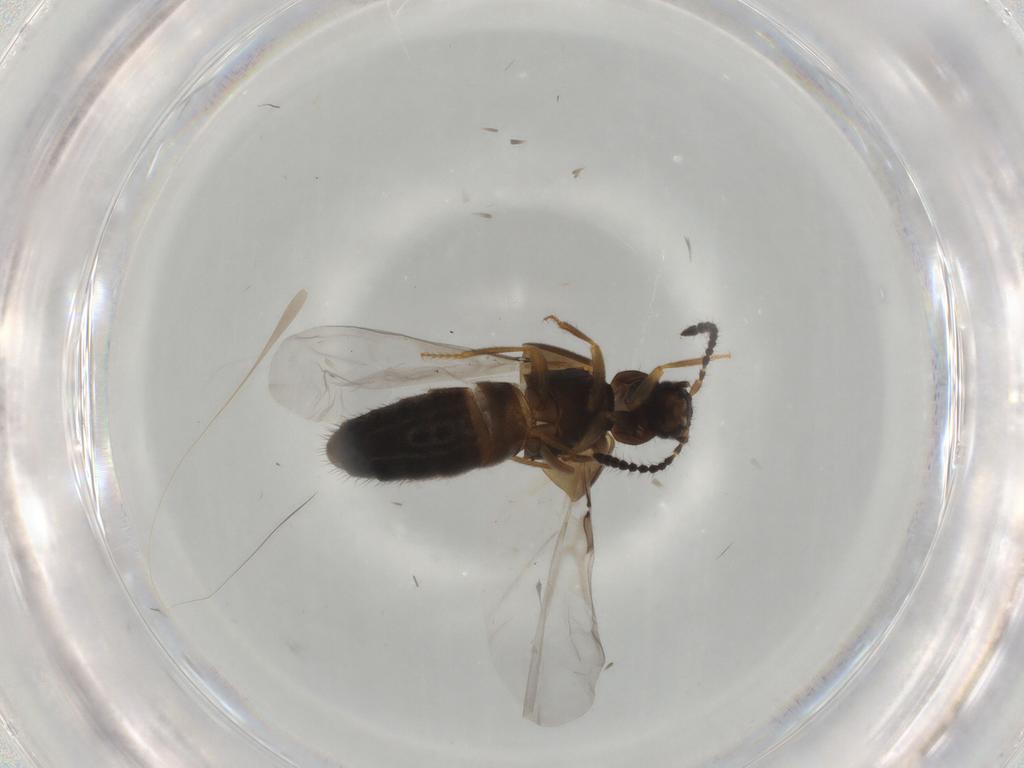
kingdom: Animalia
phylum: Arthropoda
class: Insecta
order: Coleoptera
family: Staphylinidae
